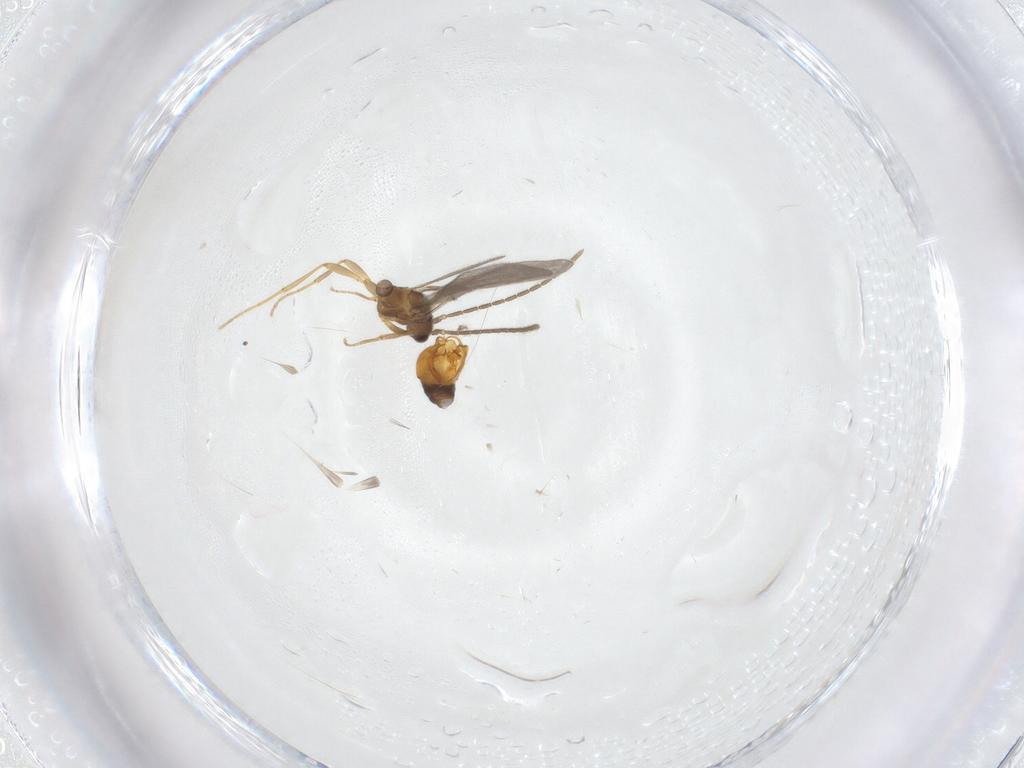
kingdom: Animalia
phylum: Arthropoda
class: Insecta
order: Hymenoptera
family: Formicidae
